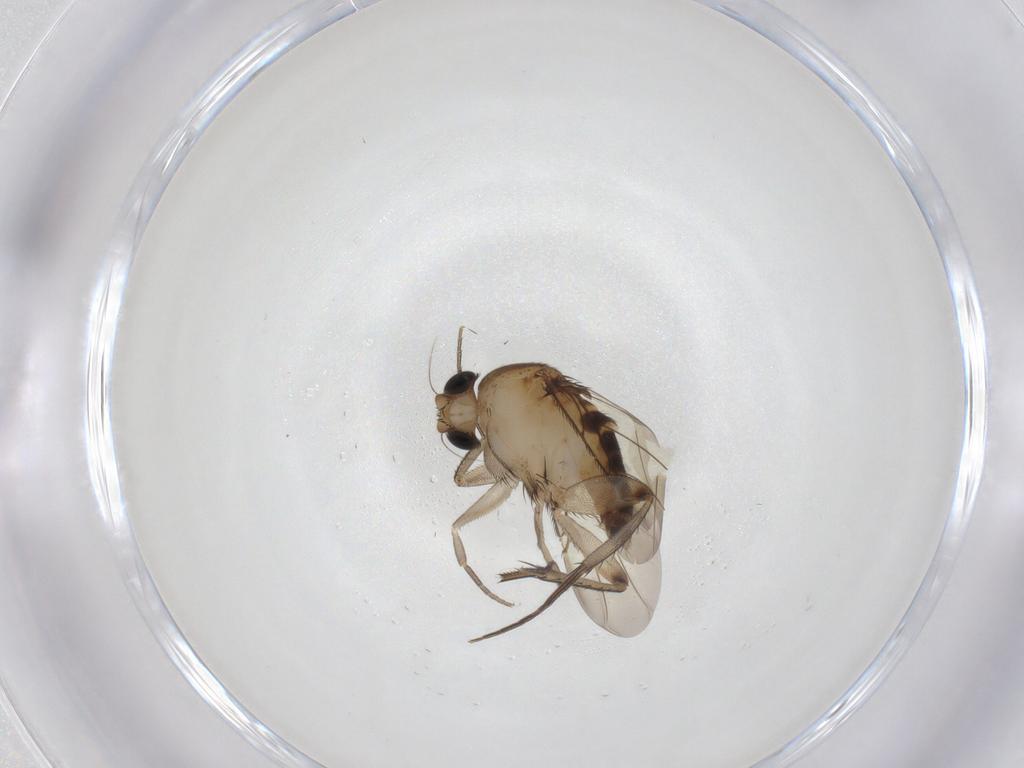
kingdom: Animalia
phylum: Arthropoda
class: Insecta
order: Diptera
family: Phoridae
